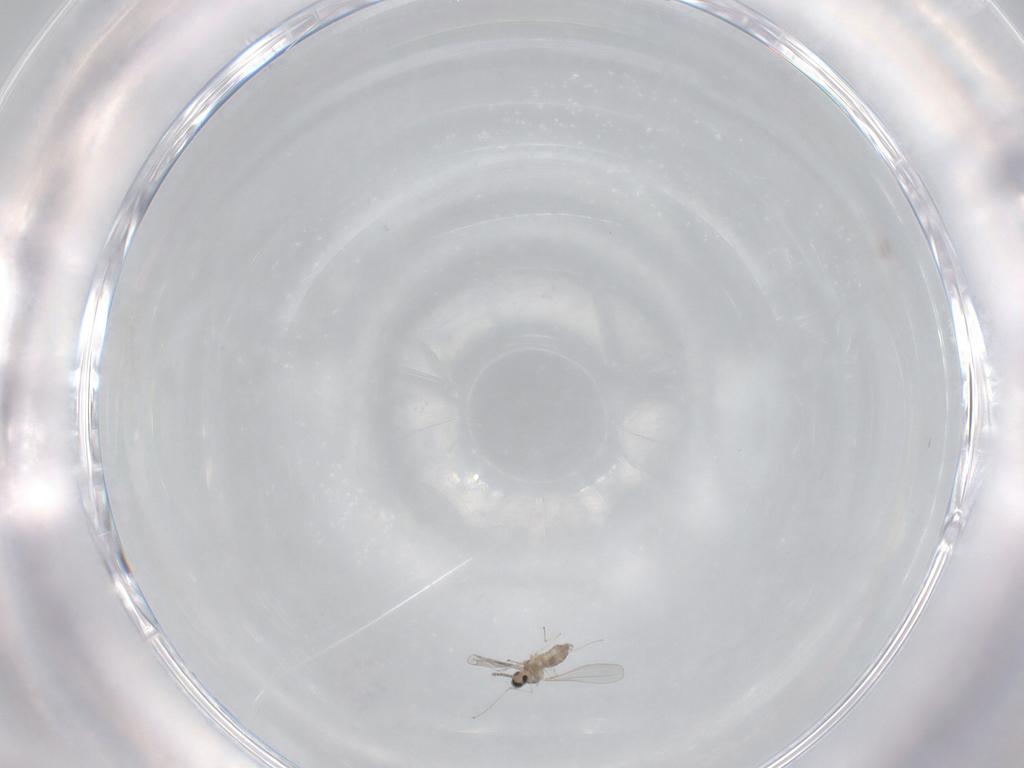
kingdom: Animalia
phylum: Arthropoda
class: Insecta
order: Diptera
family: Cecidomyiidae
